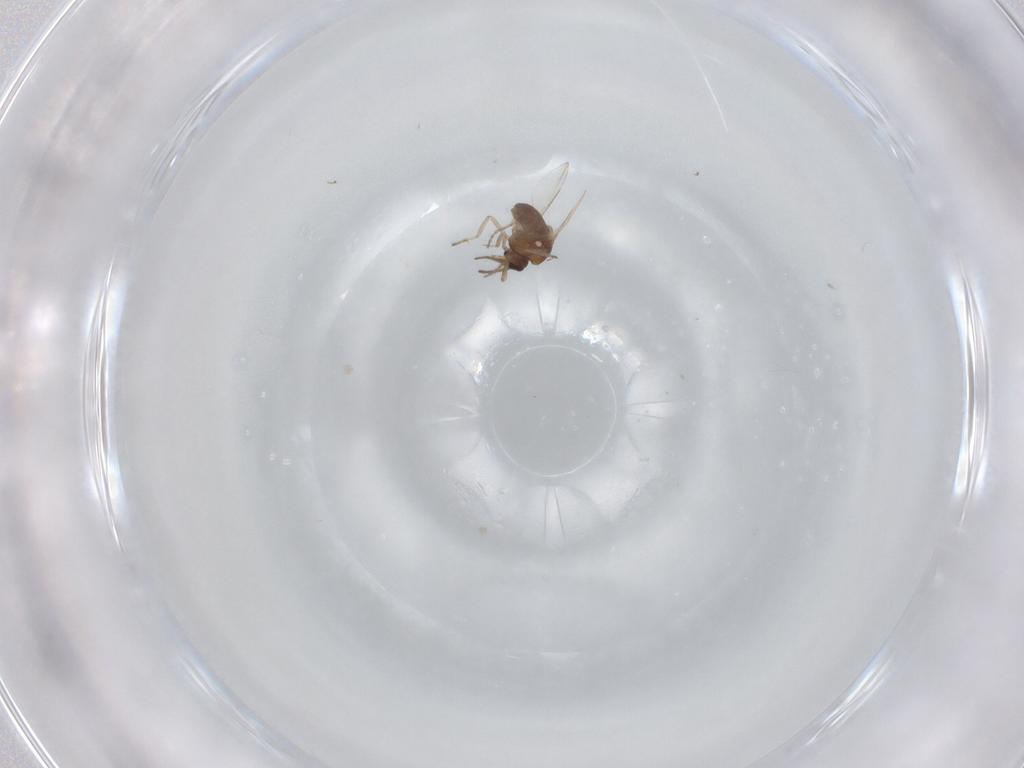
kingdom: Animalia
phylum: Arthropoda
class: Insecta
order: Diptera
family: Ceratopogonidae
